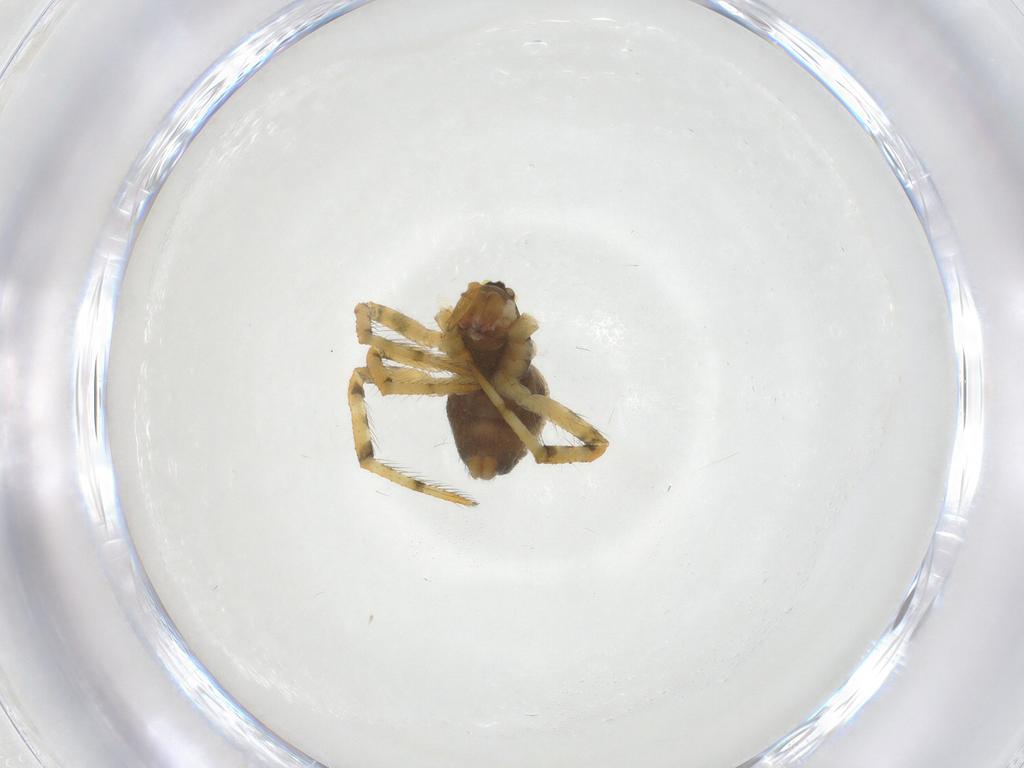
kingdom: Animalia
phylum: Arthropoda
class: Arachnida
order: Araneae
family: Theridiidae
